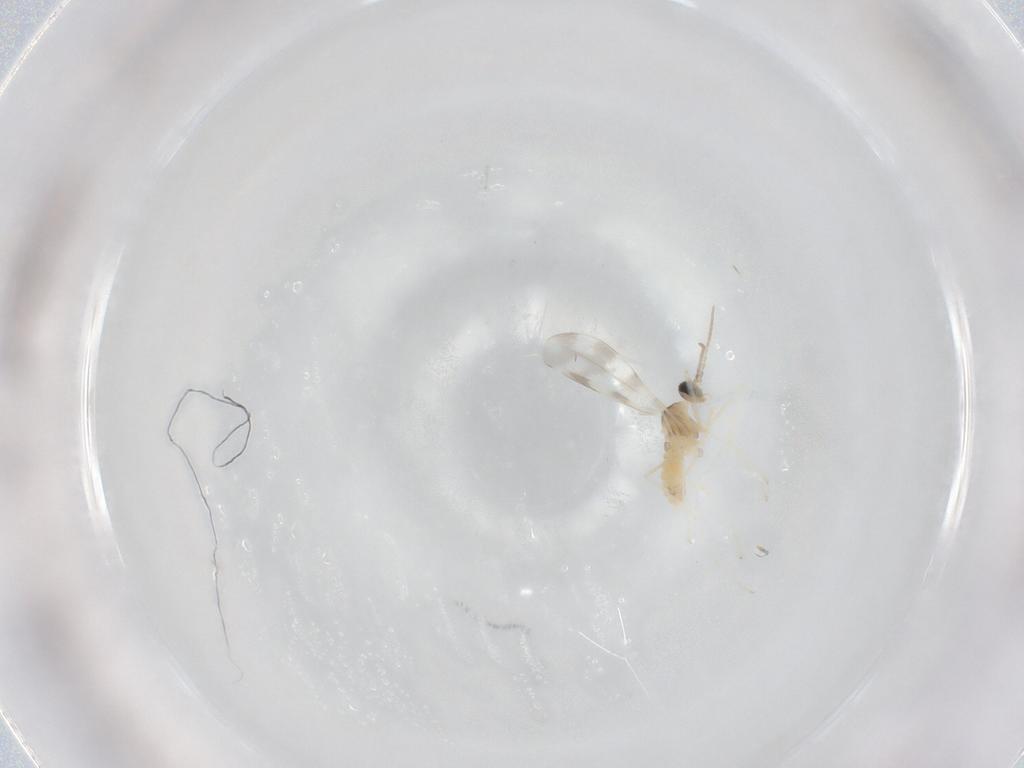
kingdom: Animalia
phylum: Arthropoda
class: Insecta
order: Diptera
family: Cecidomyiidae
